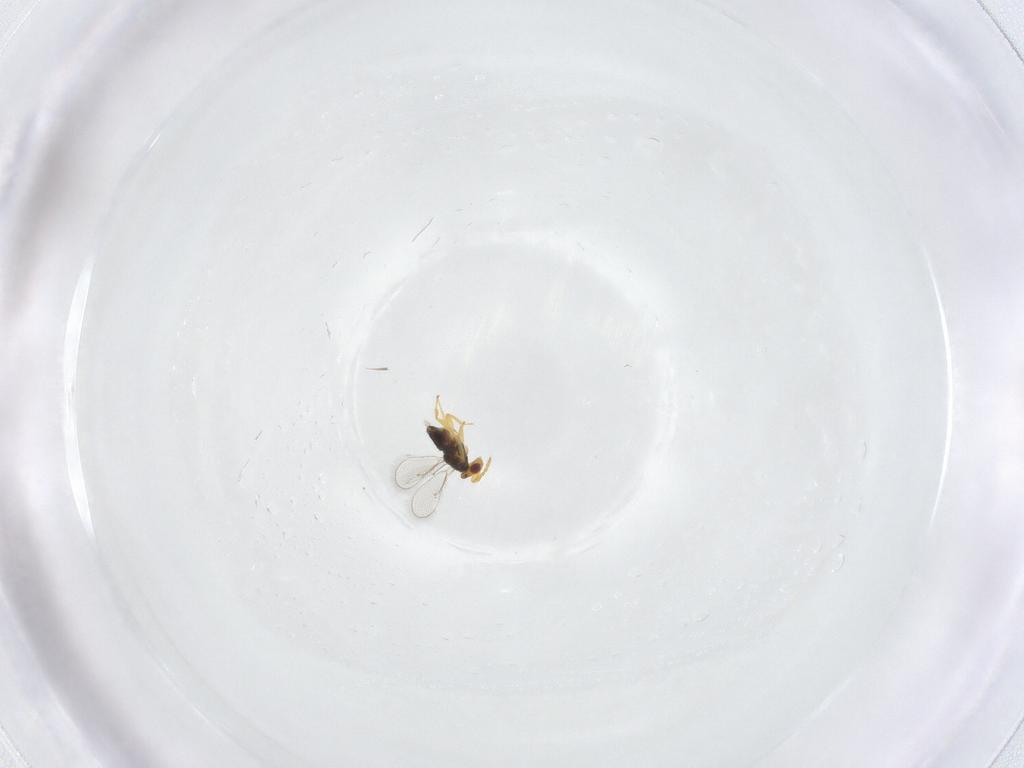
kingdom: Animalia
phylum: Arthropoda
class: Insecta
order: Hymenoptera
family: Eulophidae
